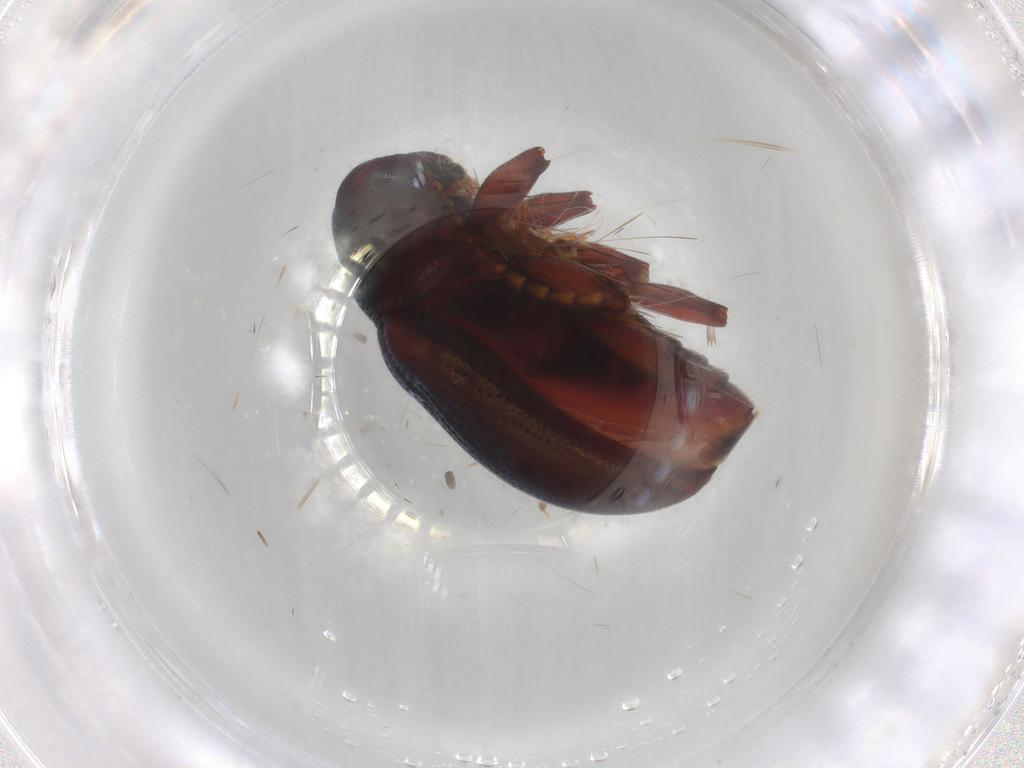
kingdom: Animalia
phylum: Arthropoda
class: Insecta
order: Coleoptera
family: Chrysomelidae
